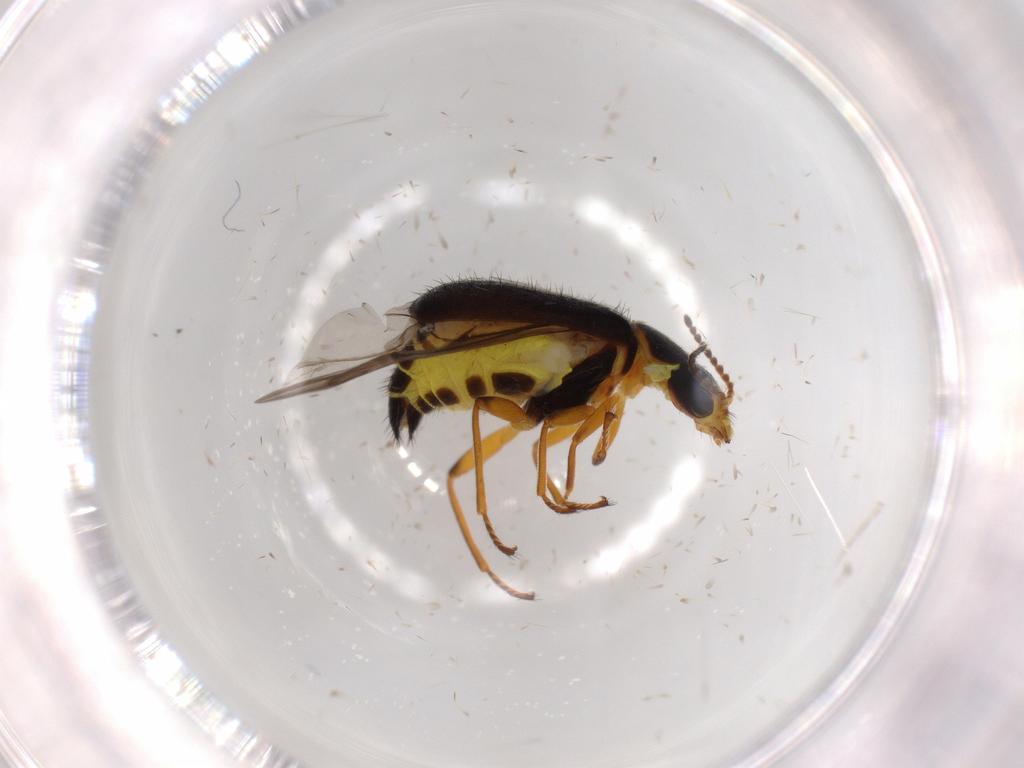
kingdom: Animalia
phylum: Arthropoda
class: Insecta
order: Coleoptera
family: Melyridae
